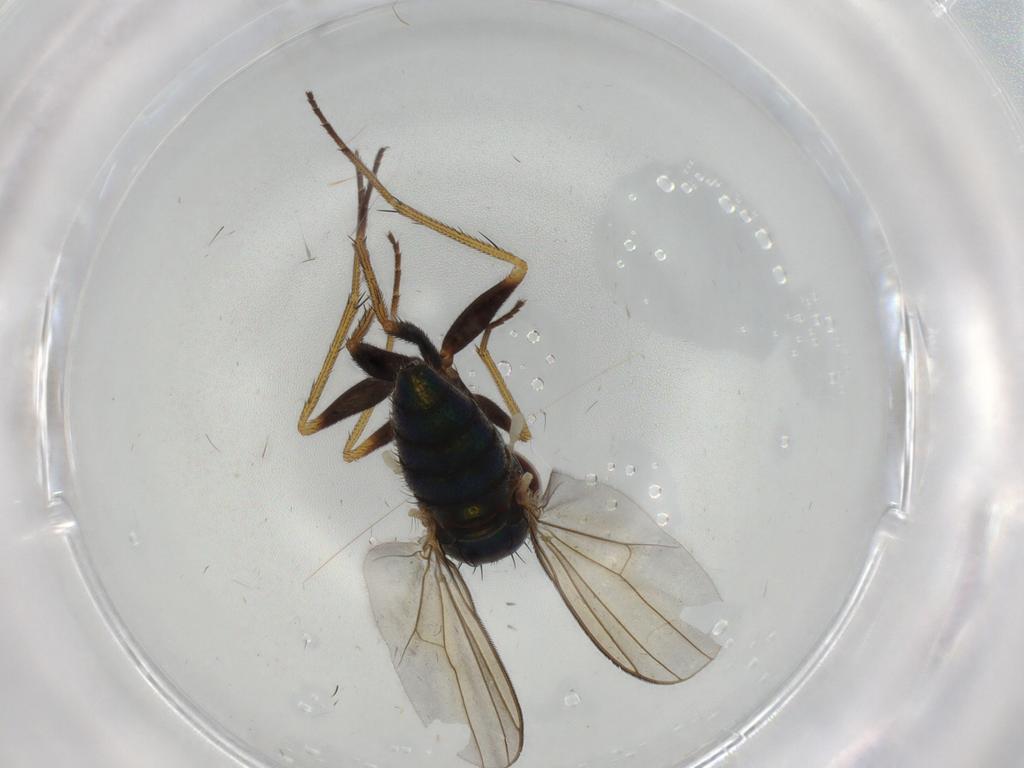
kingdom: Animalia
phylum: Arthropoda
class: Insecta
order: Diptera
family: Dolichopodidae
